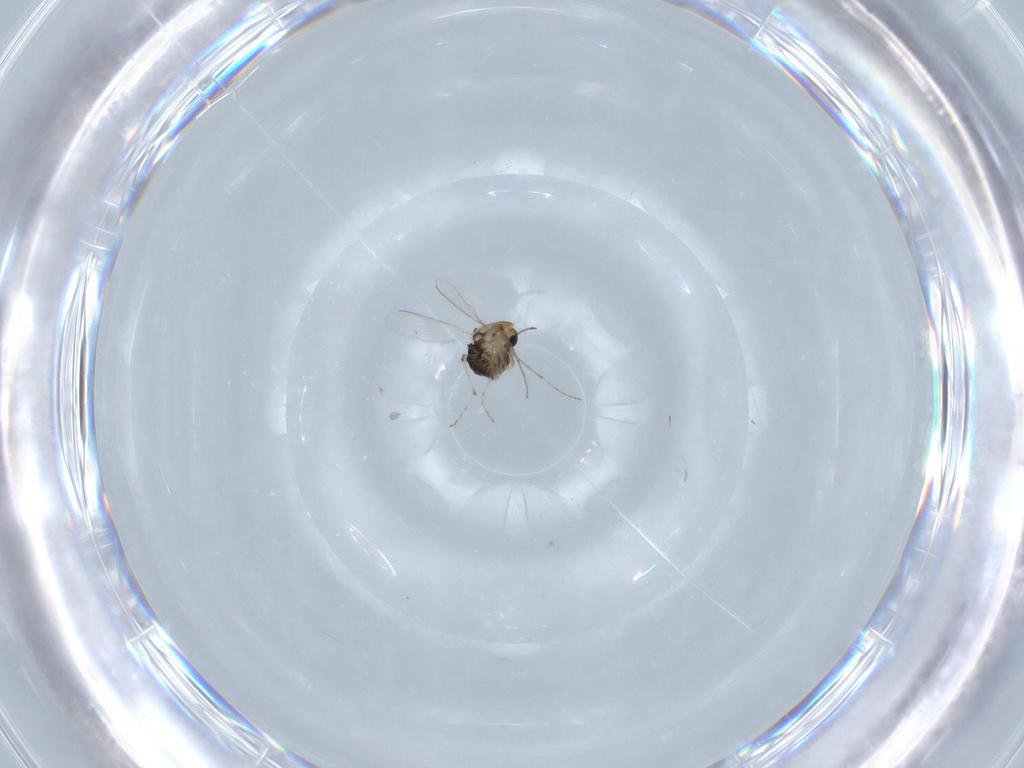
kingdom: Animalia
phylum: Arthropoda
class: Insecta
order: Diptera
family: Chironomidae
